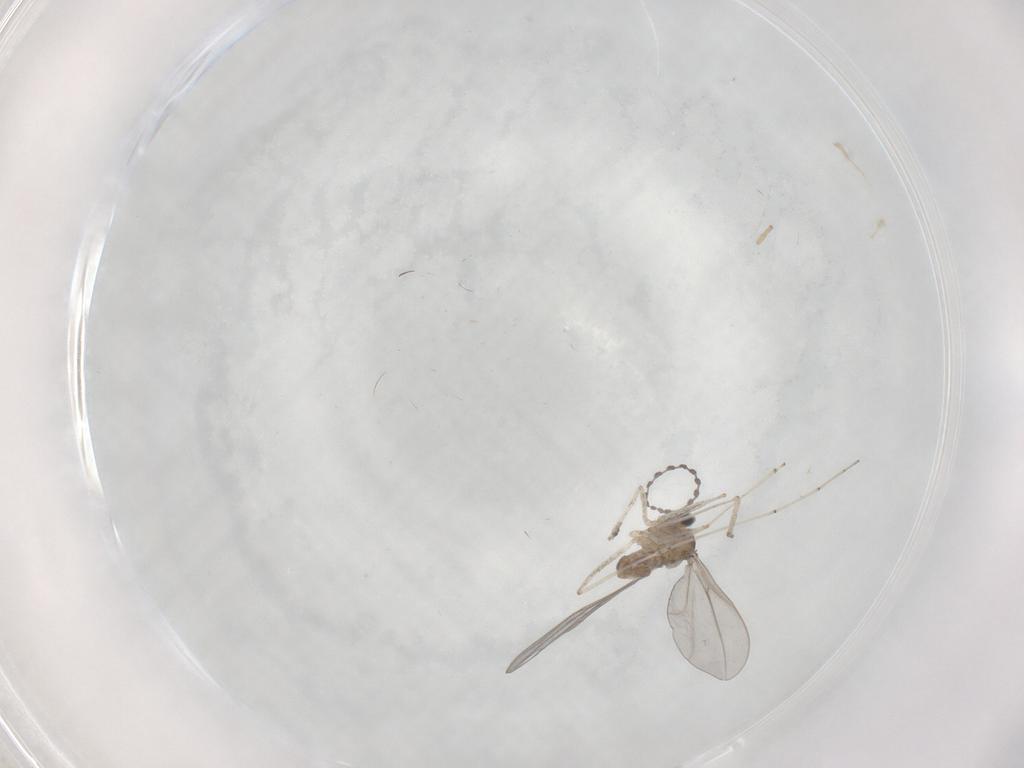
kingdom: Animalia
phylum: Arthropoda
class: Insecta
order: Diptera
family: Cecidomyiidae
